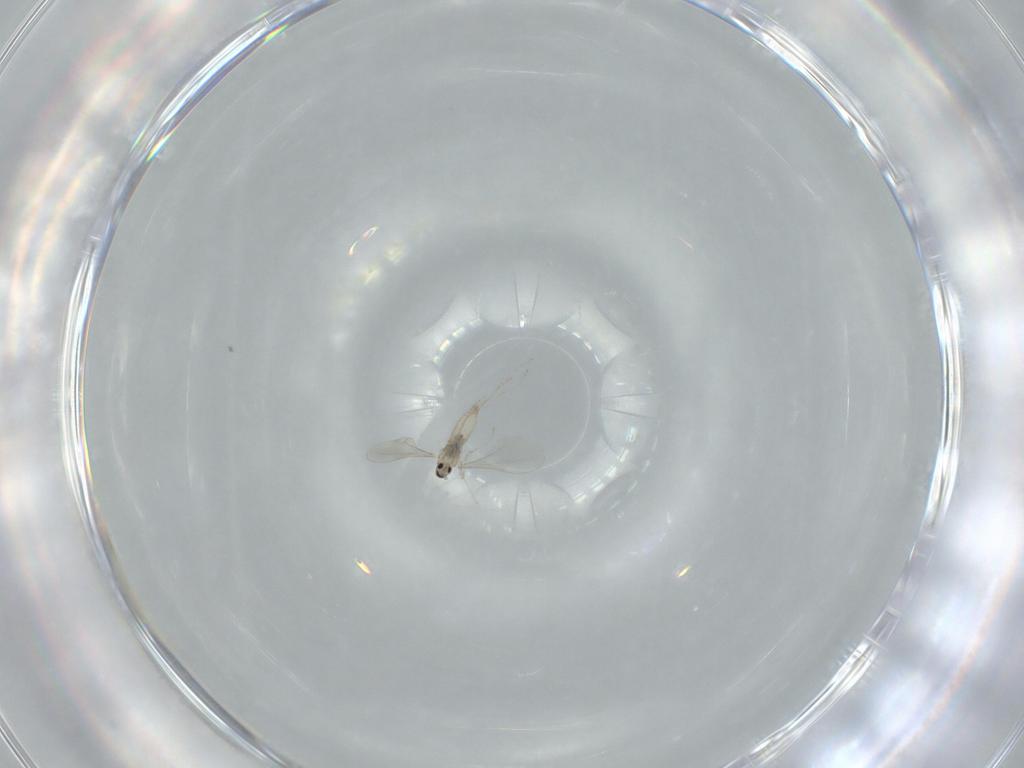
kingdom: Animalia
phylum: Arthropoda
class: Insecta
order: Diptera
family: Cecidomyiidae
